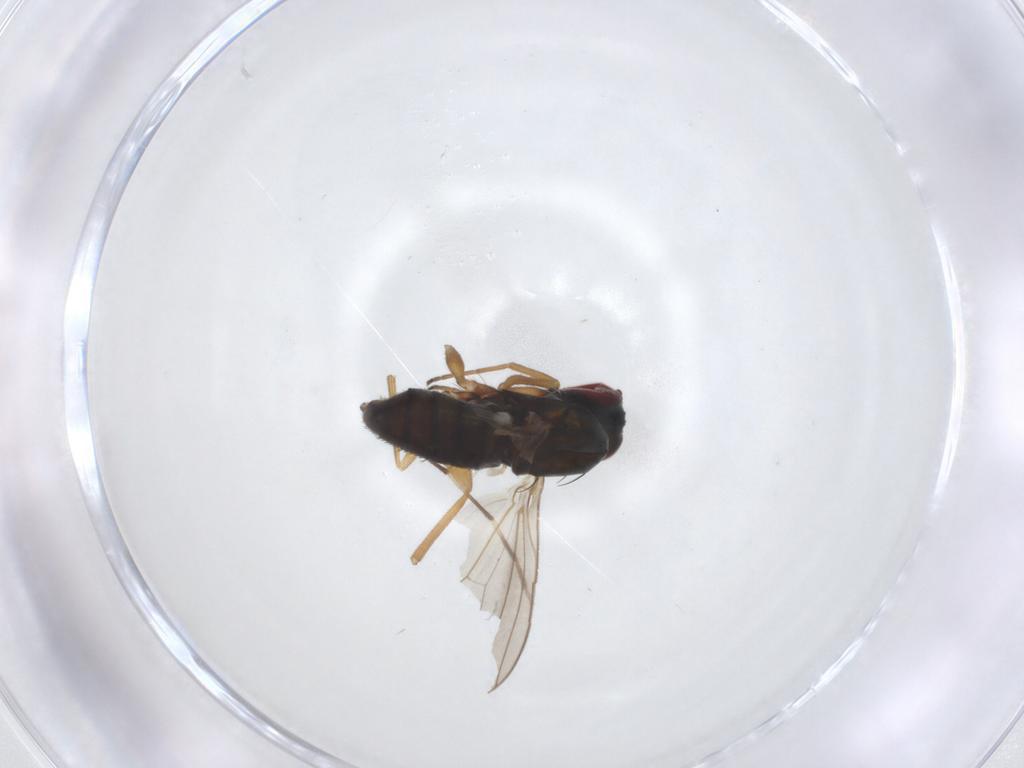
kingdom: Animalia
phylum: Arthropoda
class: Insecta
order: Diptera
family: Dolichopodidae
